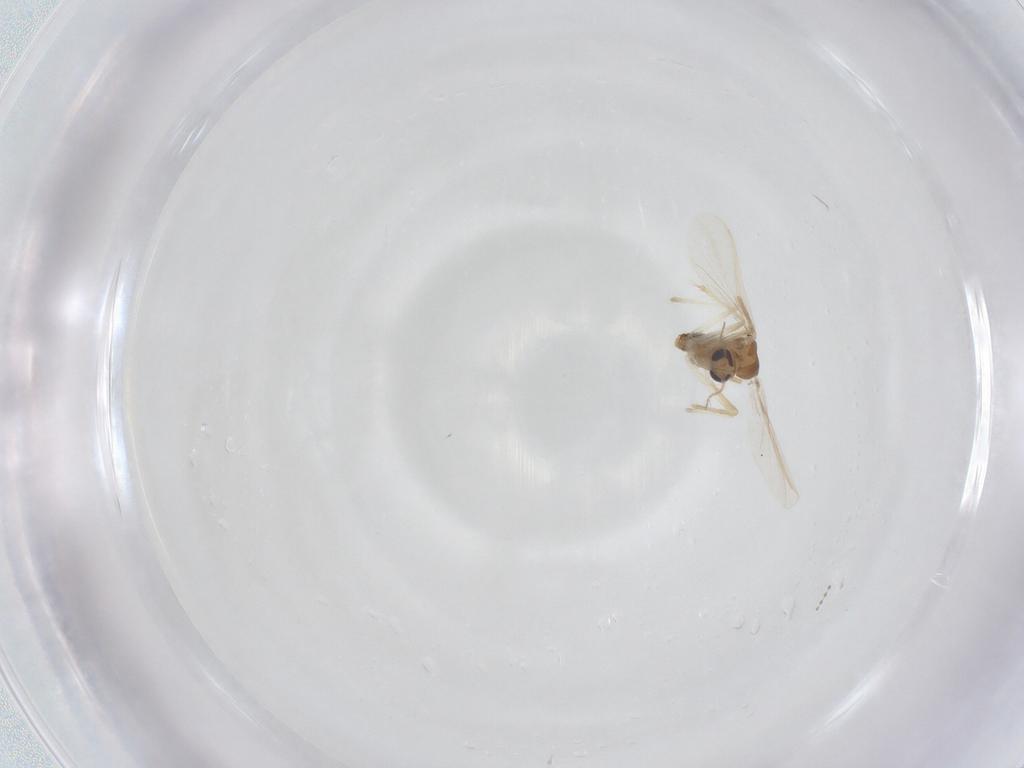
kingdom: Animalia
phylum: Arthropoda
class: Insecta
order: Diptera
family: Chironomidae
